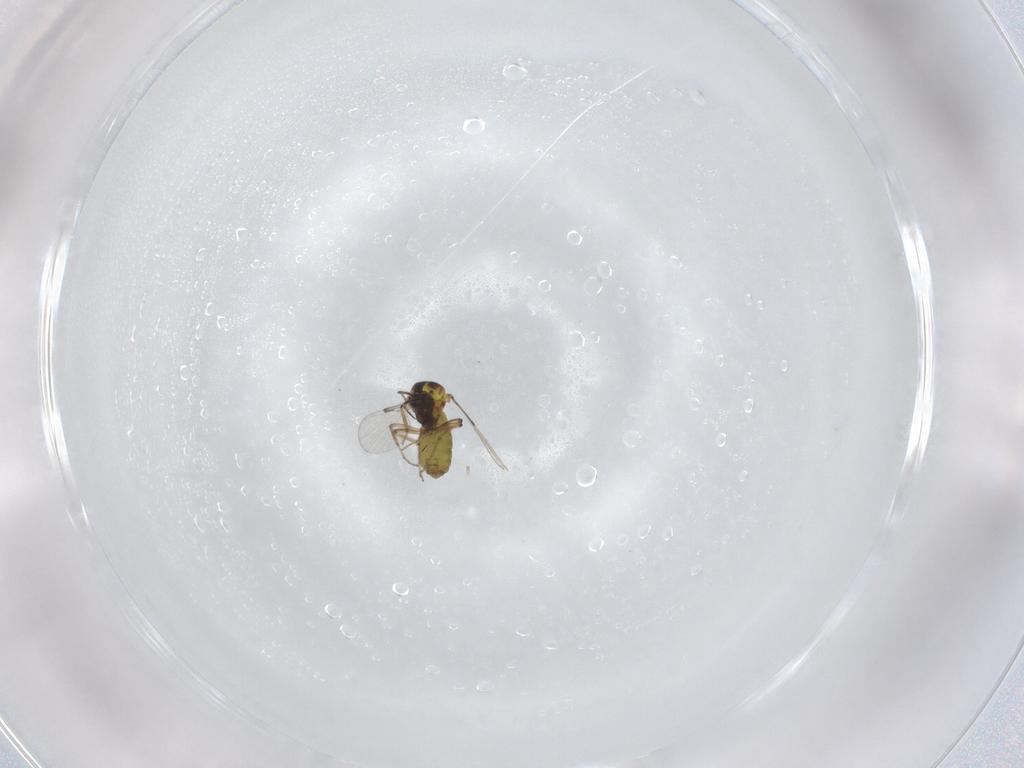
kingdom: Animalia
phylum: Arthropoda
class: Insecta
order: Diptera
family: Ceratopogonidae
